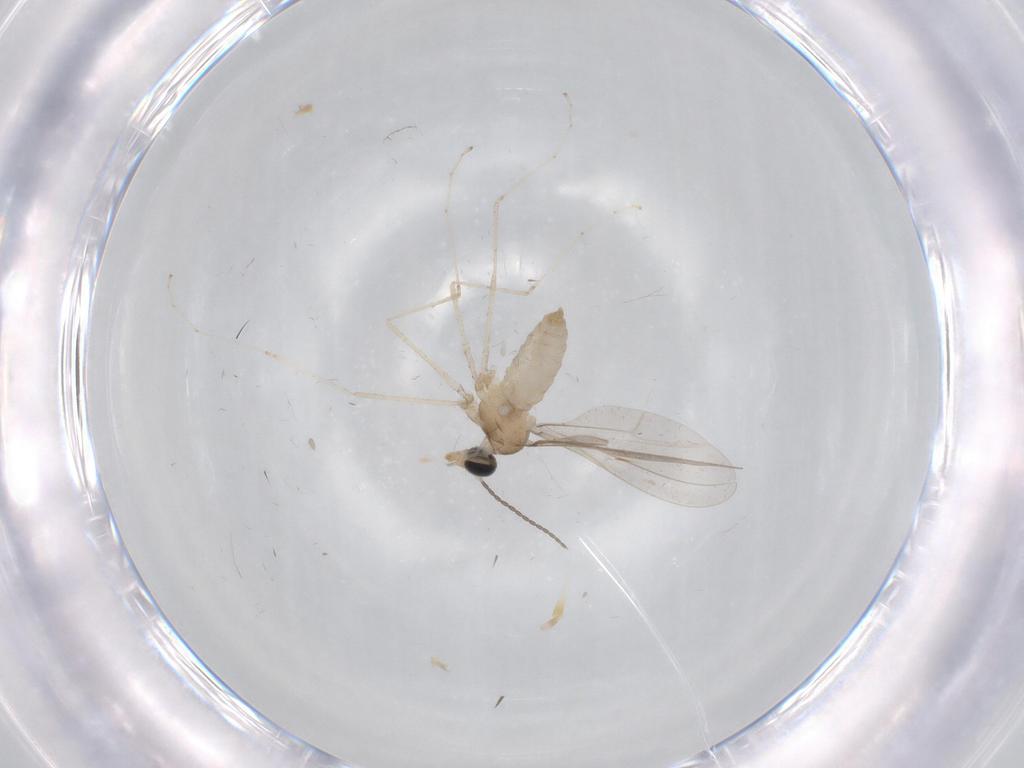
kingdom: Animalia
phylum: Arthropoda
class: Insecta
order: Diptera
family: Cecidomyiidae
